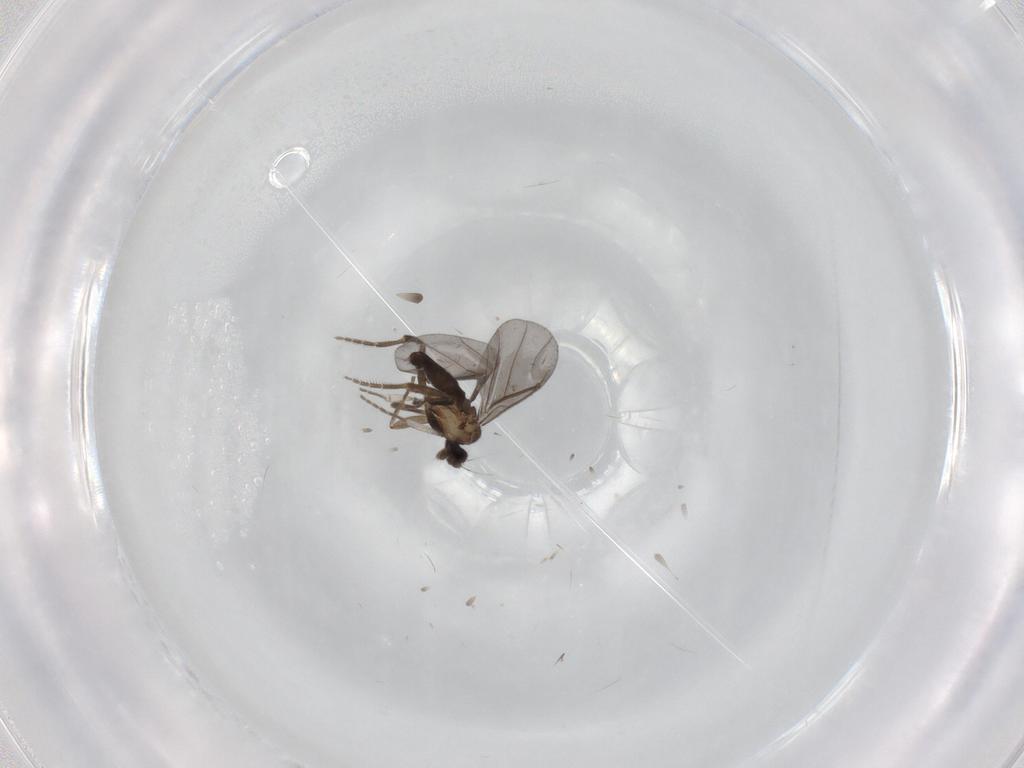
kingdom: Animalia
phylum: Arthropoda
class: Insecta
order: Diptera
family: Phoridae
